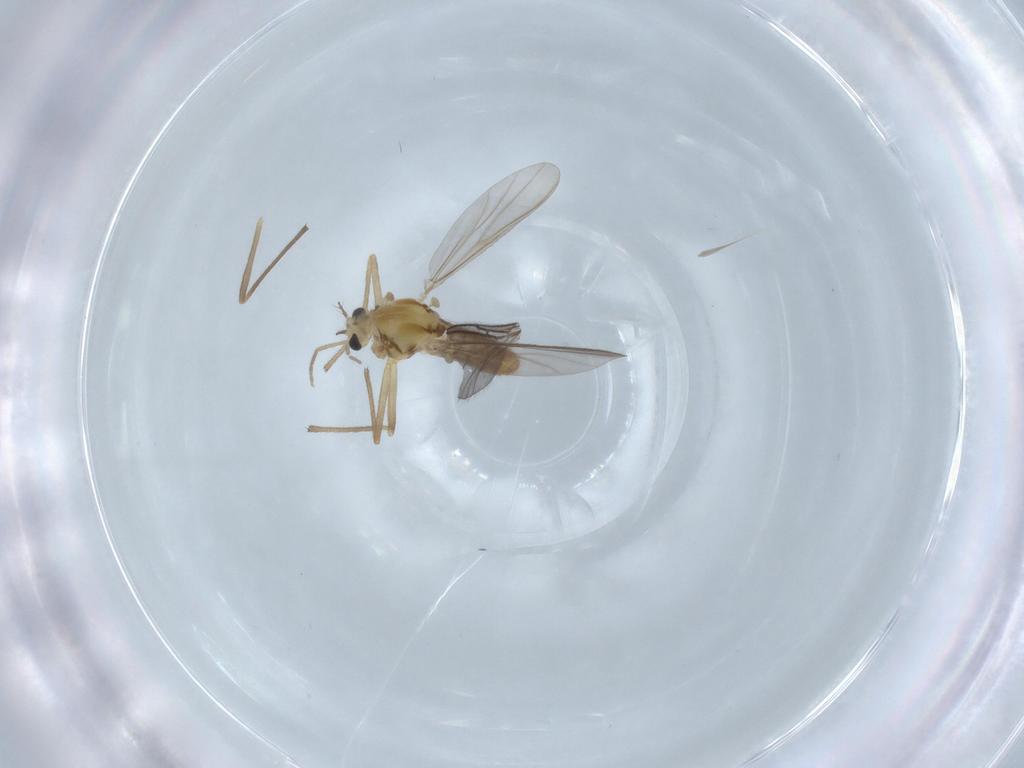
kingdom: Animalia
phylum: Arthropoda
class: Insecta
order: Diptera
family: Chironomidae
